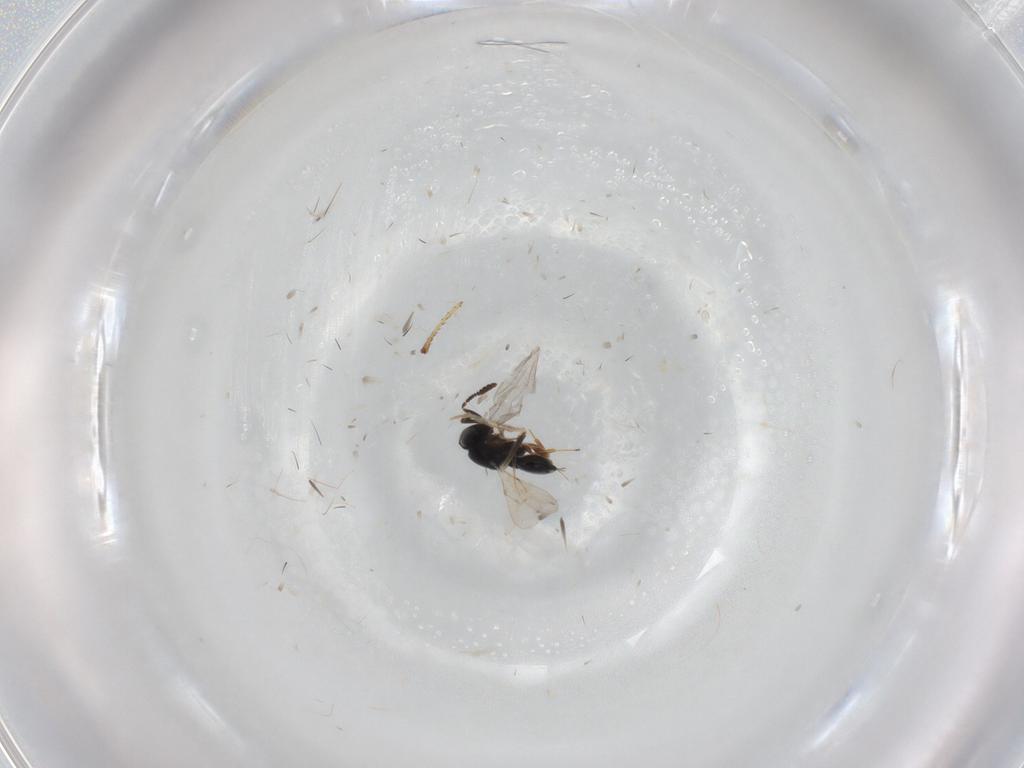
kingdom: Animalia
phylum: Arthropoda
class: Insecta
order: Hymenoptera
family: Scelionidae
